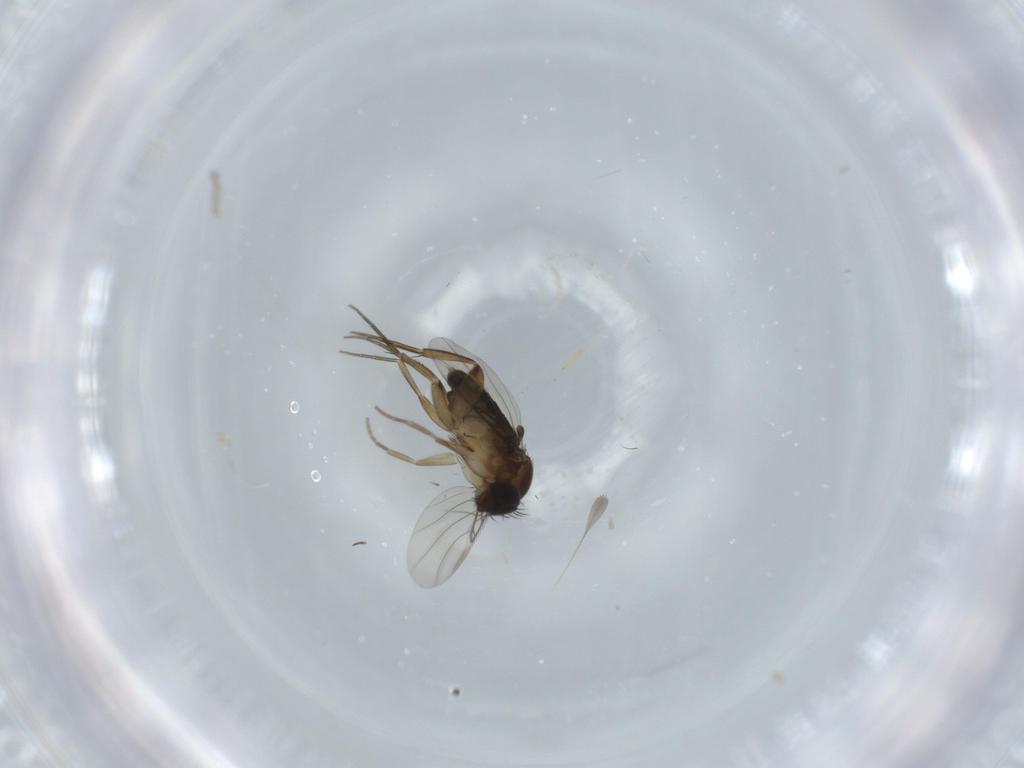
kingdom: Animalia
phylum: Arthropoda
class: Insecta
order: Diptera
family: Phoridae
